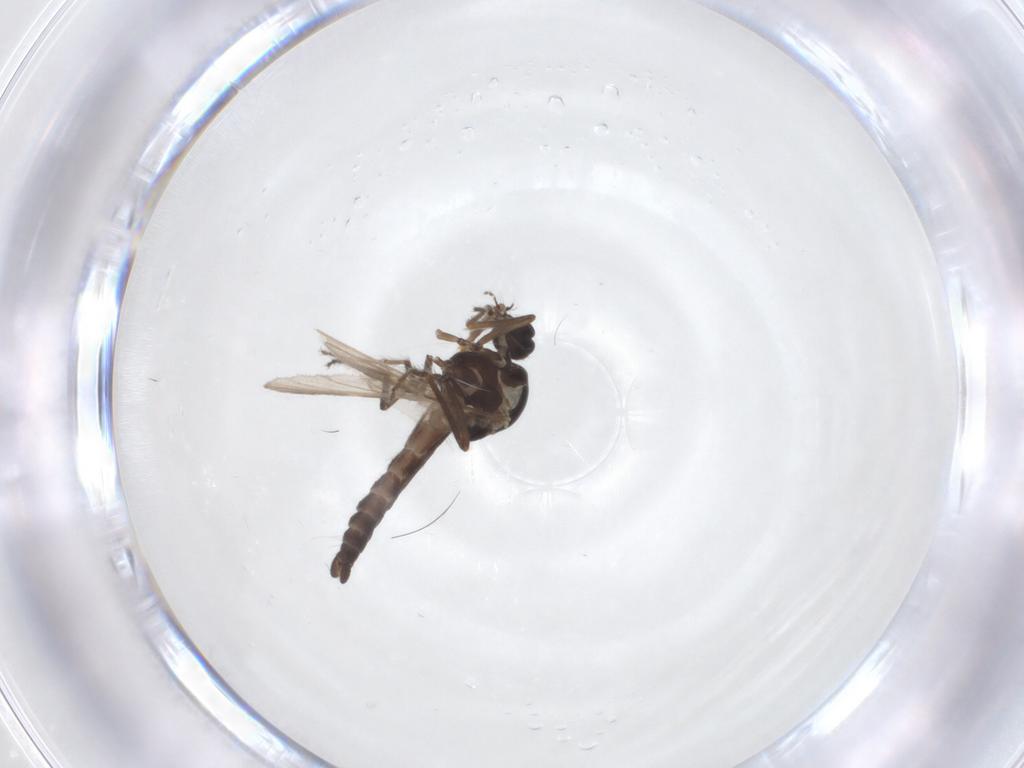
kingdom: Animalia
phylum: Arthropoda
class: Insecta
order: Diptera
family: Ceratopogonidae
